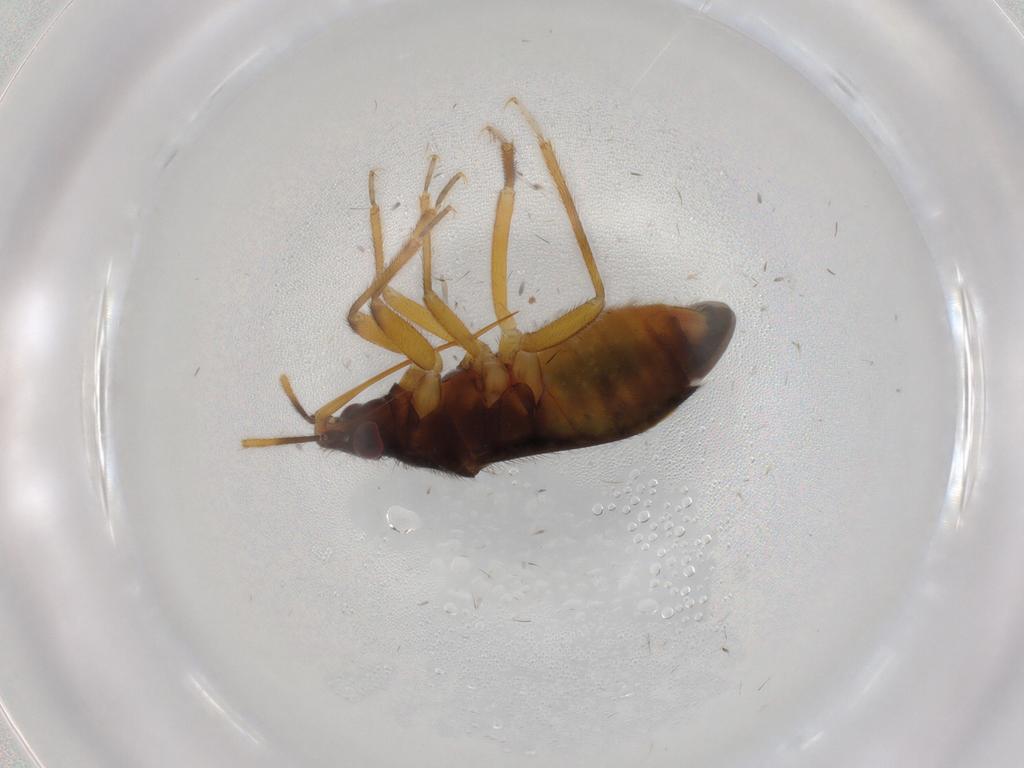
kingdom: Animalia
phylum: Arthropoda
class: Insecta
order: Hemiptera
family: Anthocoridae
